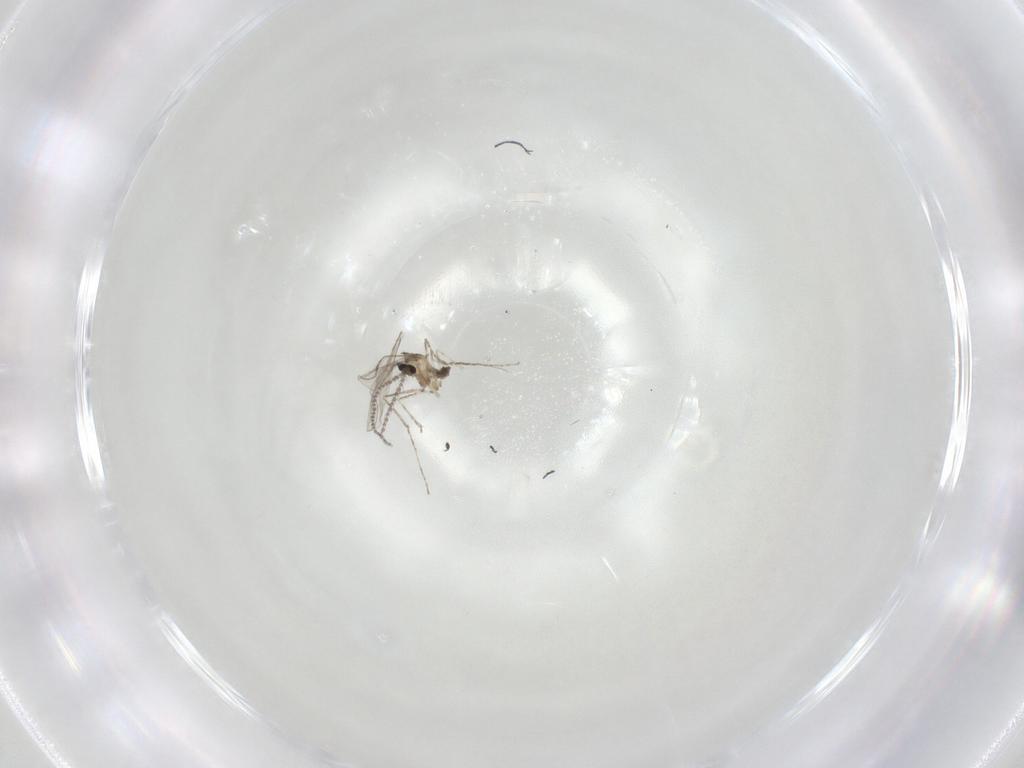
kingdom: Animalia
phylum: Arthropoda
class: Insecta
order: Diptera
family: Cecidomyiidae
